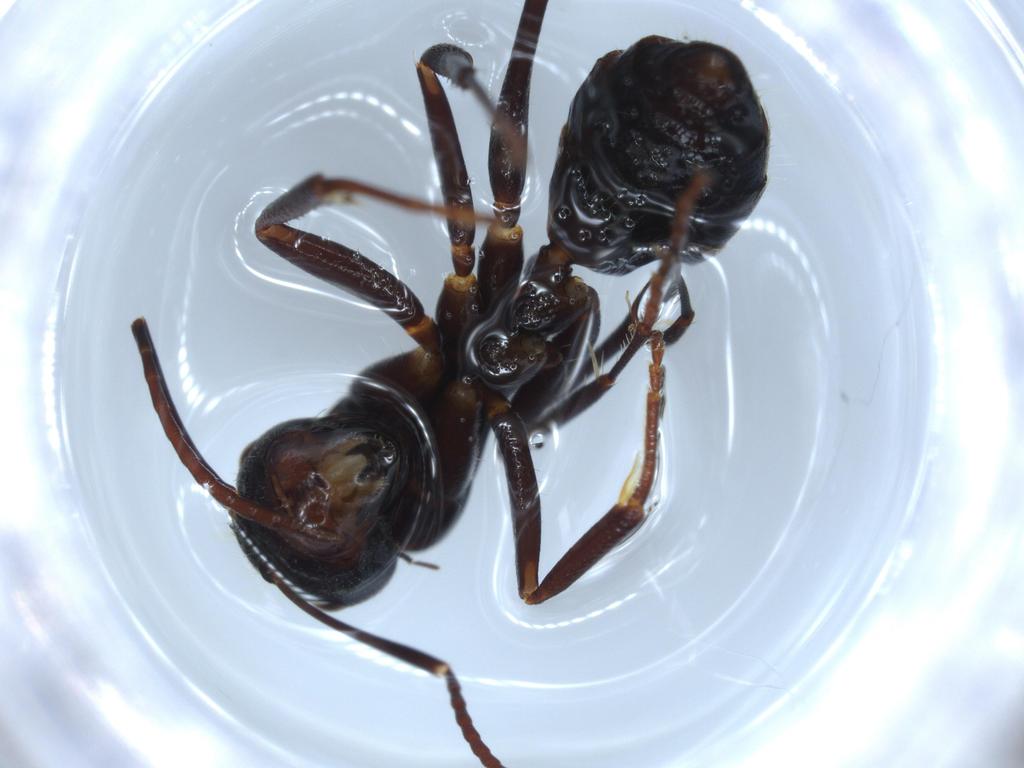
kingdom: Animalia
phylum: Arthropoda
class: Insecta
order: Hymenoptera
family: Formicidae
